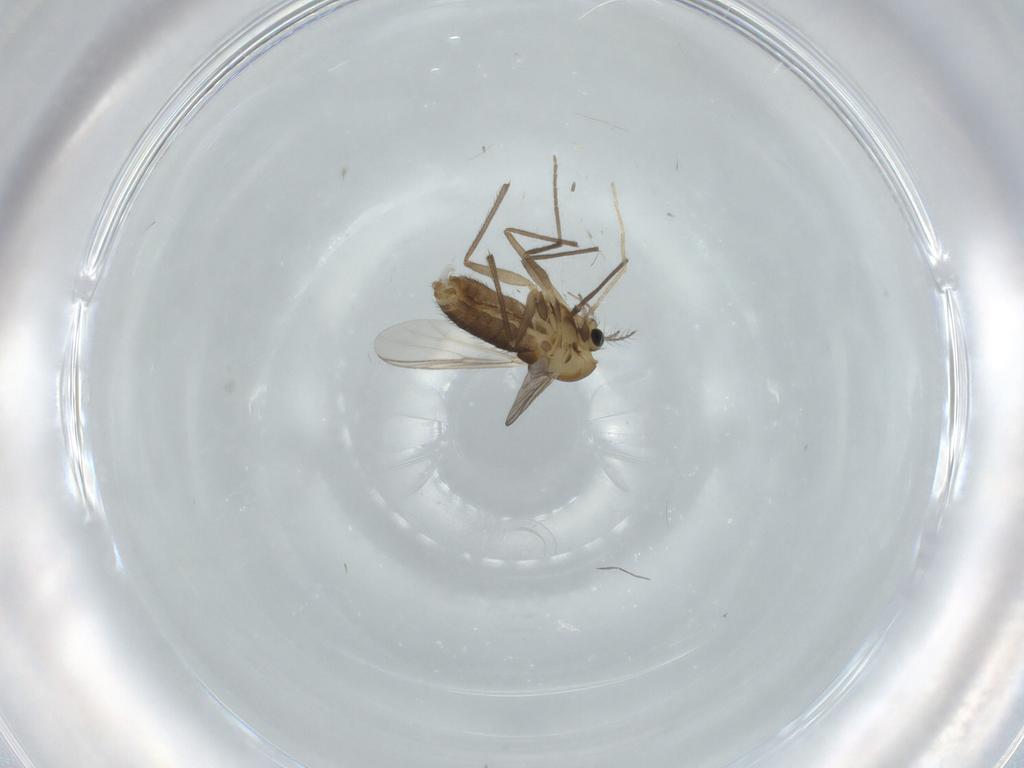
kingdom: Animalia
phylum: Arthropoda
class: Insecta
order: Diptera
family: Chironomidae
